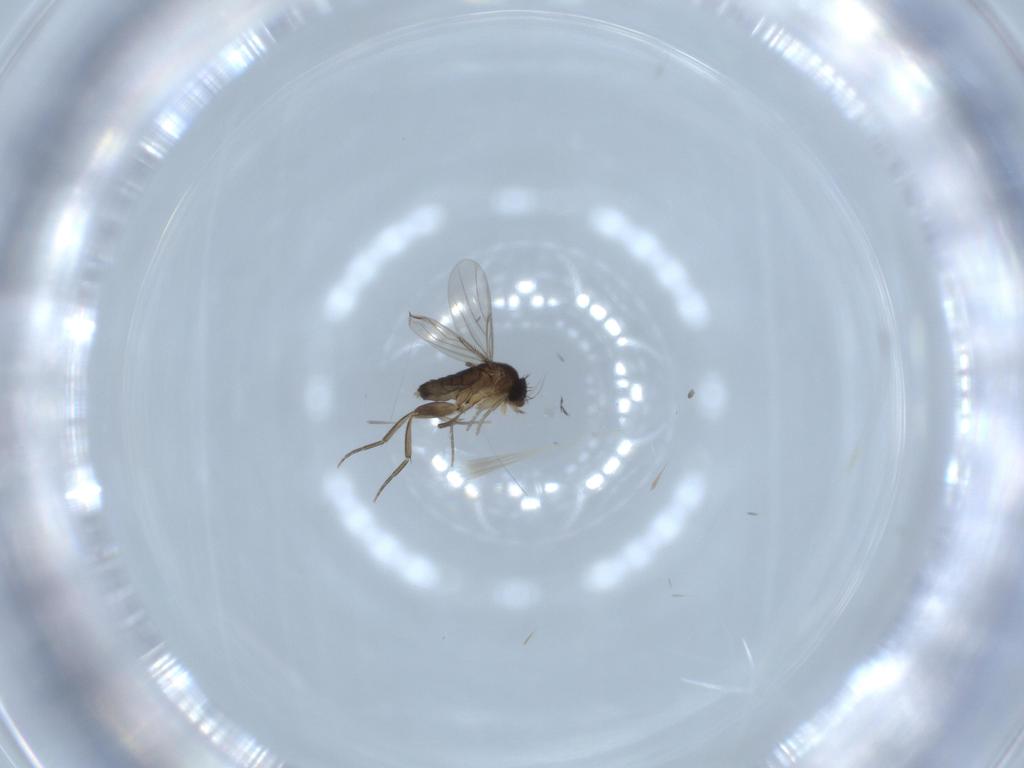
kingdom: Animalia
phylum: Arthropoda
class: Insecta
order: Diptera
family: Phoridae
